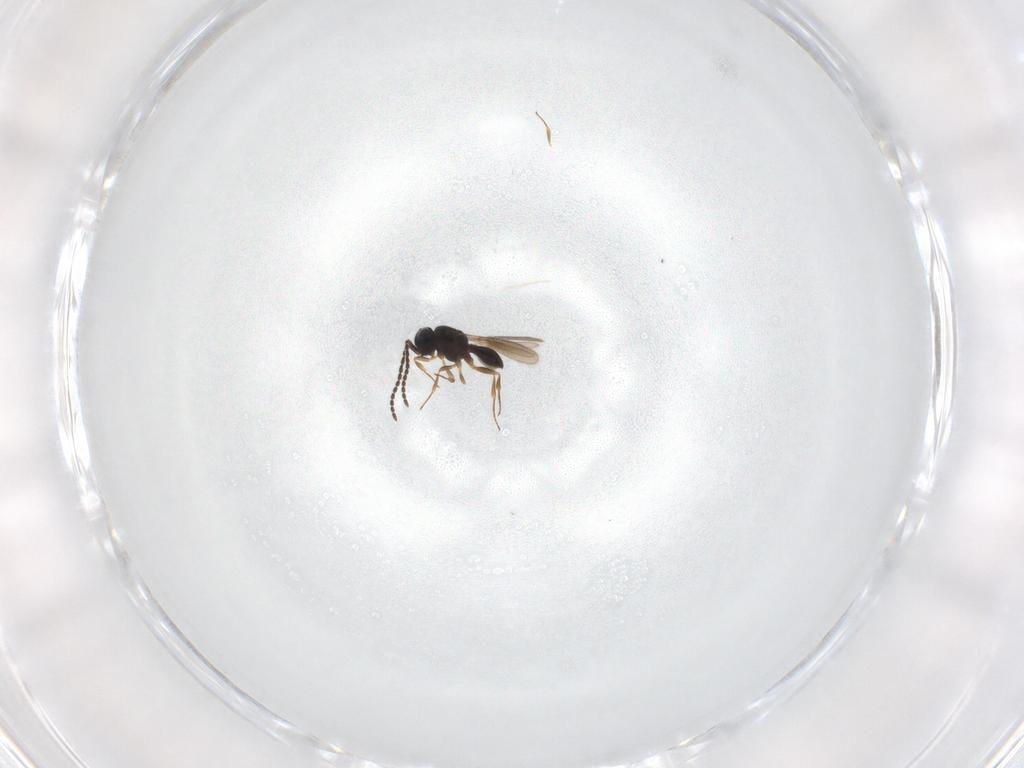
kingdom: Animalia
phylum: Arthropoda
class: Insecta
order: Hymenoptera
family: Scelionidae
